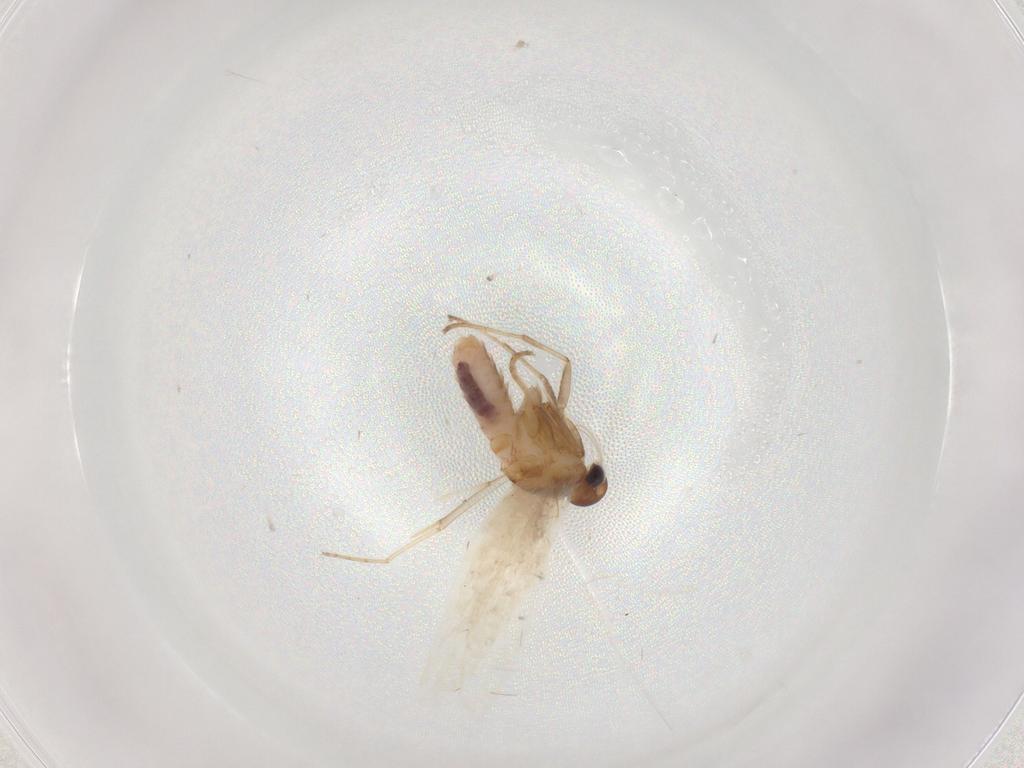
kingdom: Animalia
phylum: Arthropoda
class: Insecta
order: Lepidoptera
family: Gelechiidae
